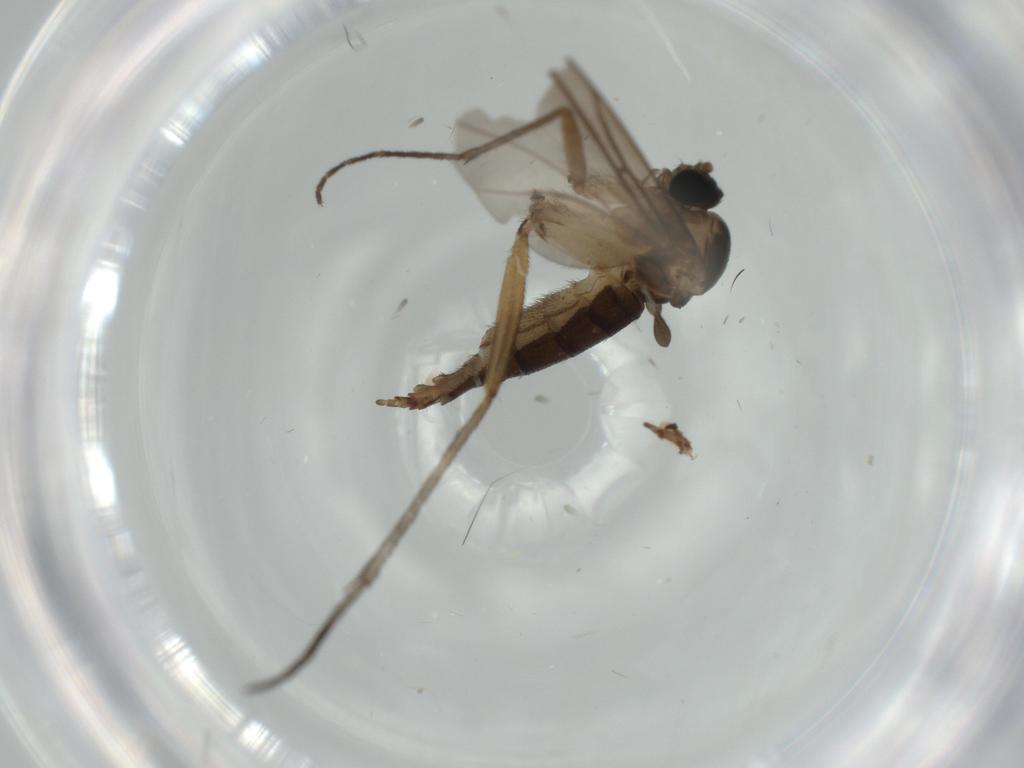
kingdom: Animalia
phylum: Arthropoda
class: Insecta
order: Diptera
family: Sciaridae
